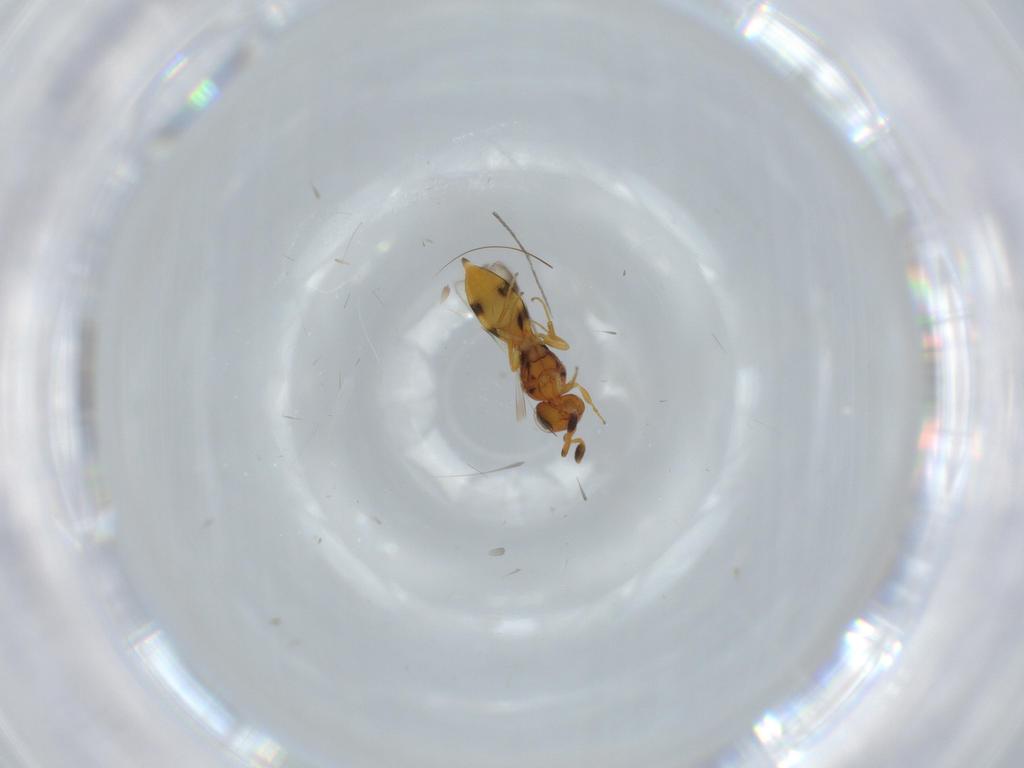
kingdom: Animalia
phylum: Arthropoda
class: Insecta
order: Hymenoptera
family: Scelionidae
